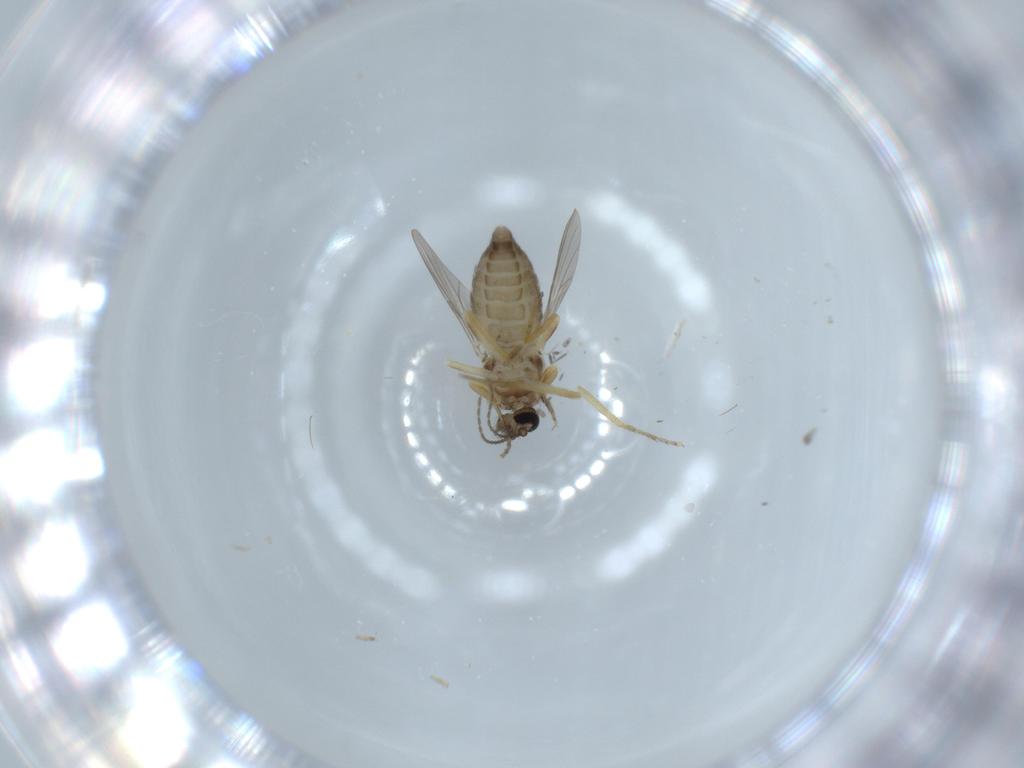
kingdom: Animalia
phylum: Arthropoda
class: Insecta
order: Diptera
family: Ceratopogonidae
